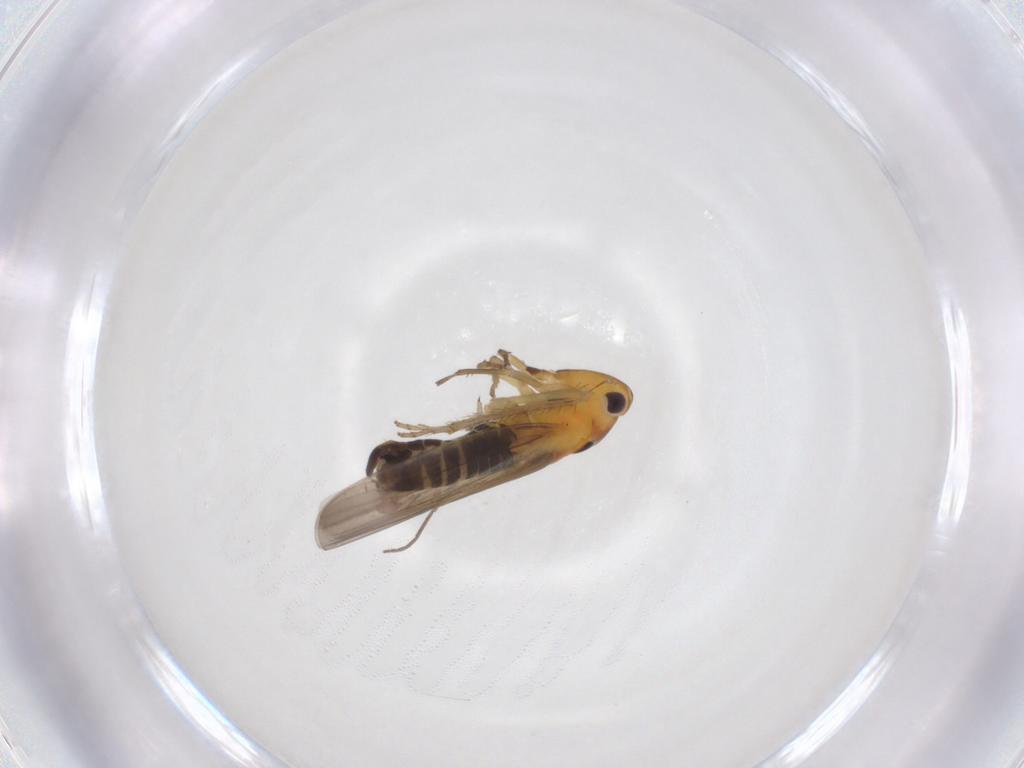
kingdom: Animalia
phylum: Arthropoda
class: Insecta
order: Hemiptera
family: Cicadellidae
